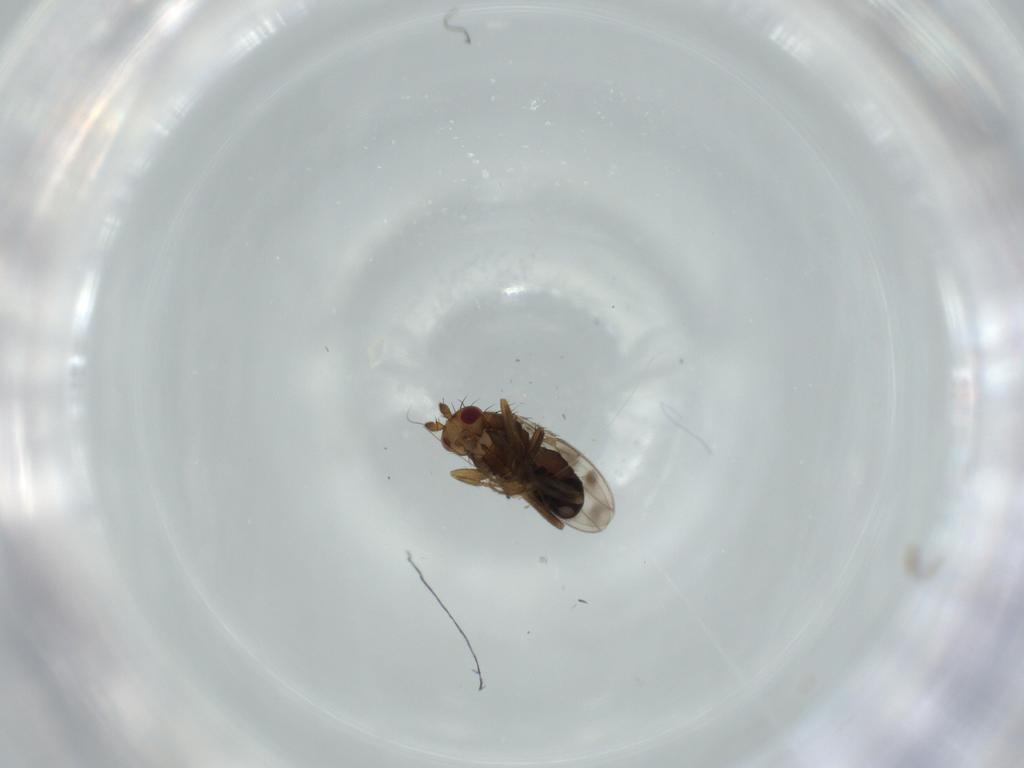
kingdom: Animalia
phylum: Arthropoda
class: Insecta
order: Diptera
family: Sphaeroceridae
